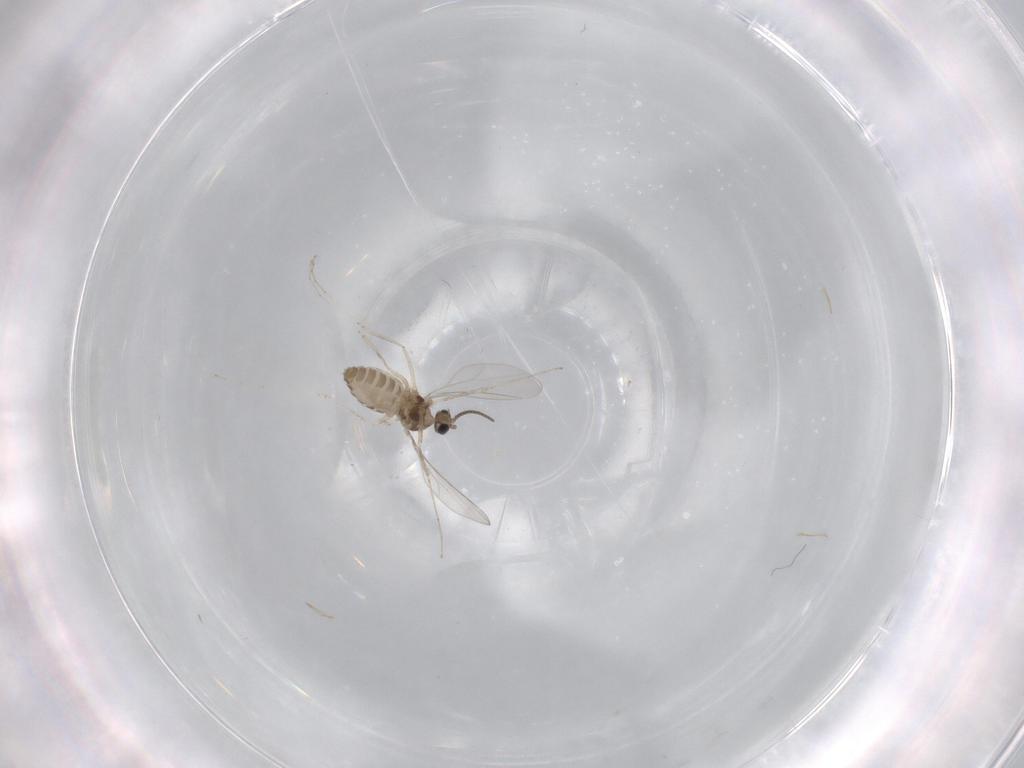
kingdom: Animalia
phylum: Arthropoda
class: Insecta
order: Diptera
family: Cecidomyiidae
